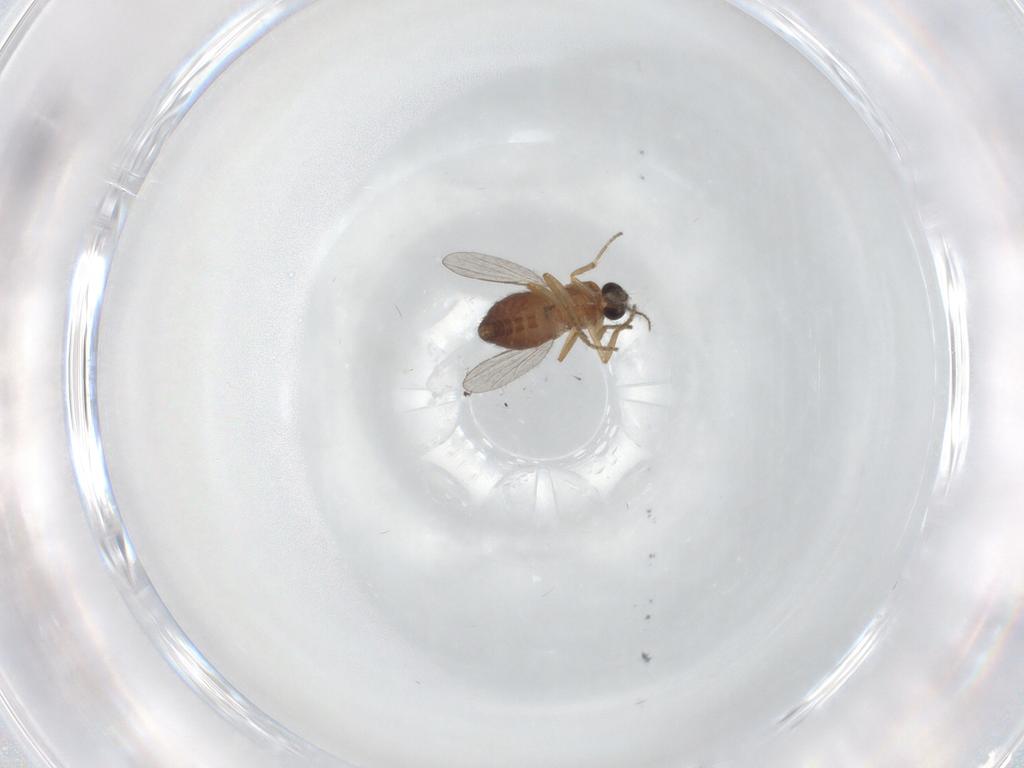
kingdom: Animalia
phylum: Arthropoda
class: Insecta
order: Diptera
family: Ceratopogonidae
